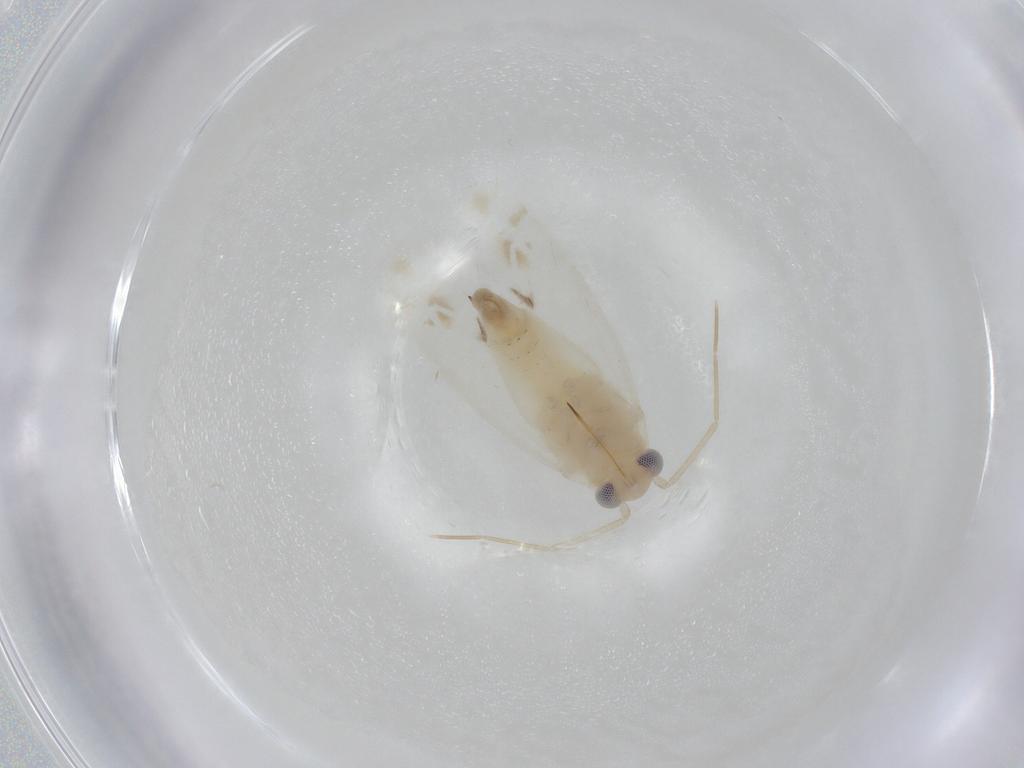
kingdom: Animalia
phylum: Arthropoda
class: Insecta
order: Hemiptera
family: Miridae
